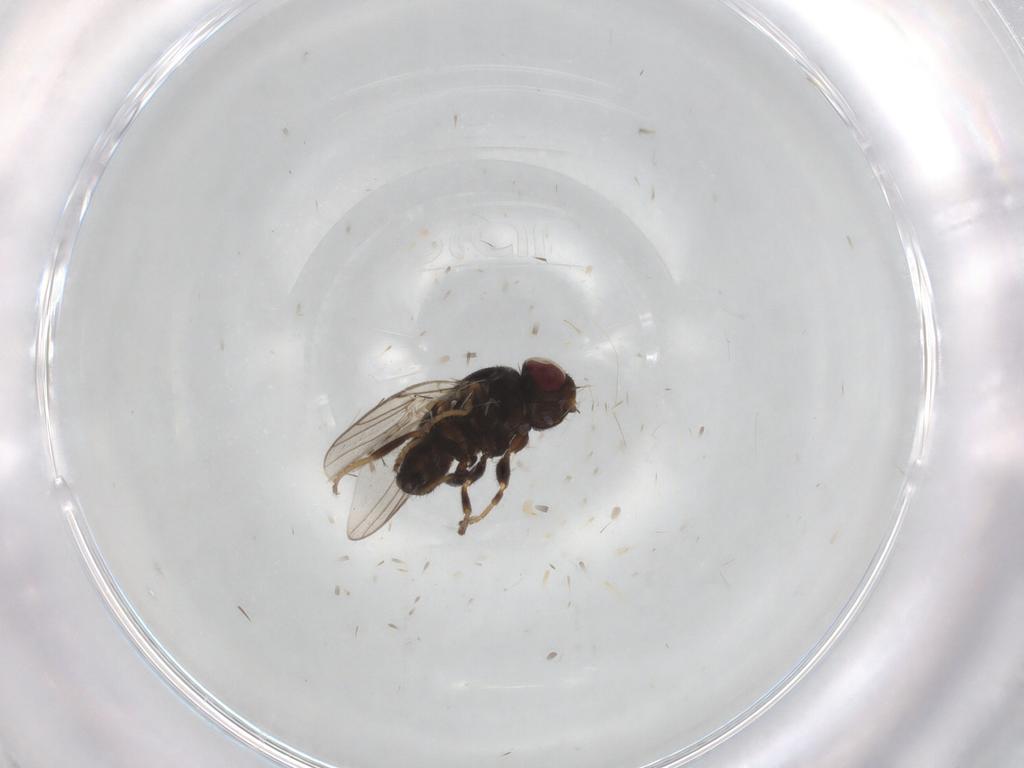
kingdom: Animalia
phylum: Arthropoda
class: Insecta
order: Diptera
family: Chloropidae
